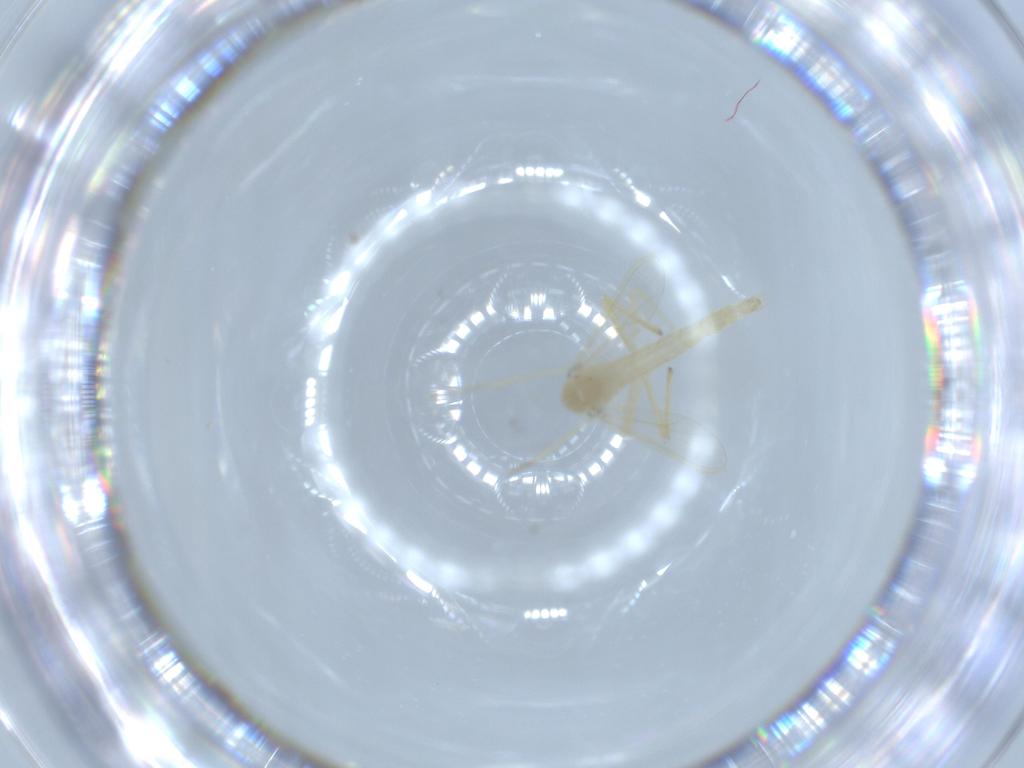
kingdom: Animalia
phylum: Arthropoda
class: Insecta
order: Diptera
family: Chironomidae
